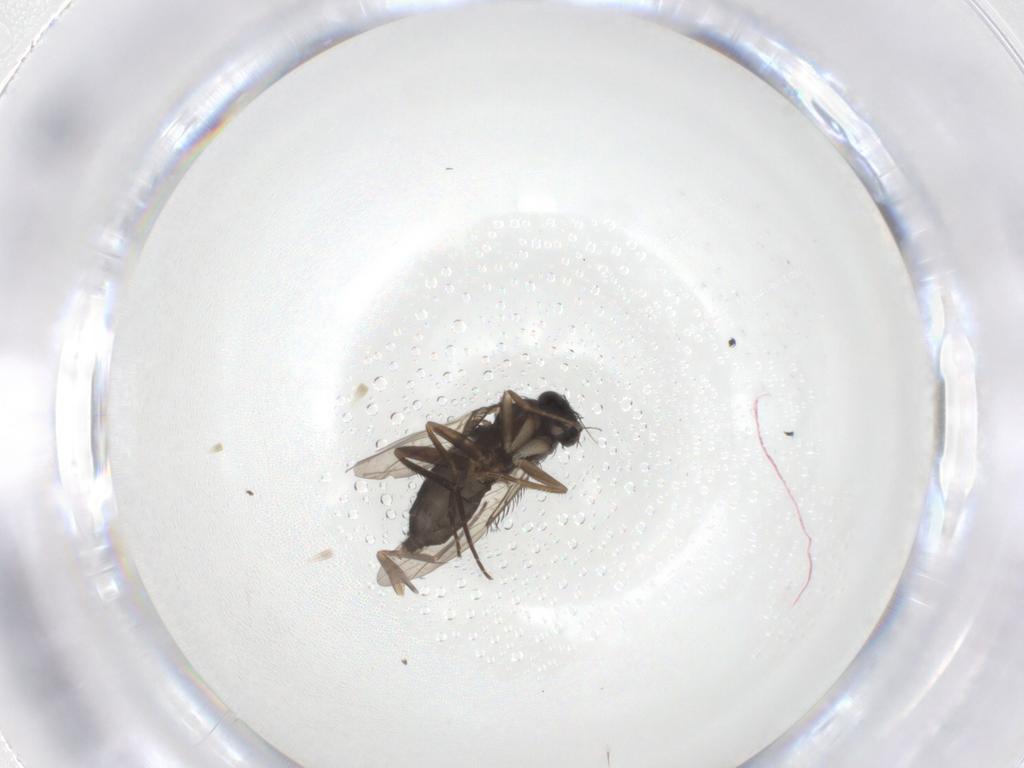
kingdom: Animalia
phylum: Arthropoda
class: Insecta
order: Diptera
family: Phoridae
